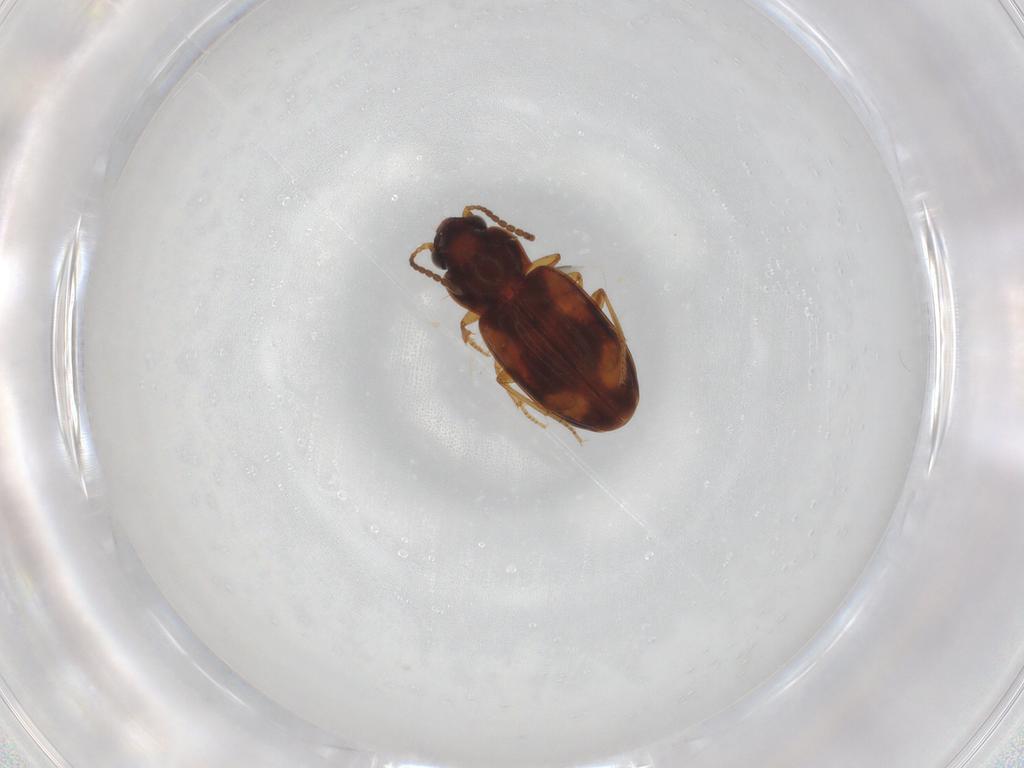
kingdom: Animalia
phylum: Arthropoda
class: Insecta
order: Coleoptera
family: Carabidae
